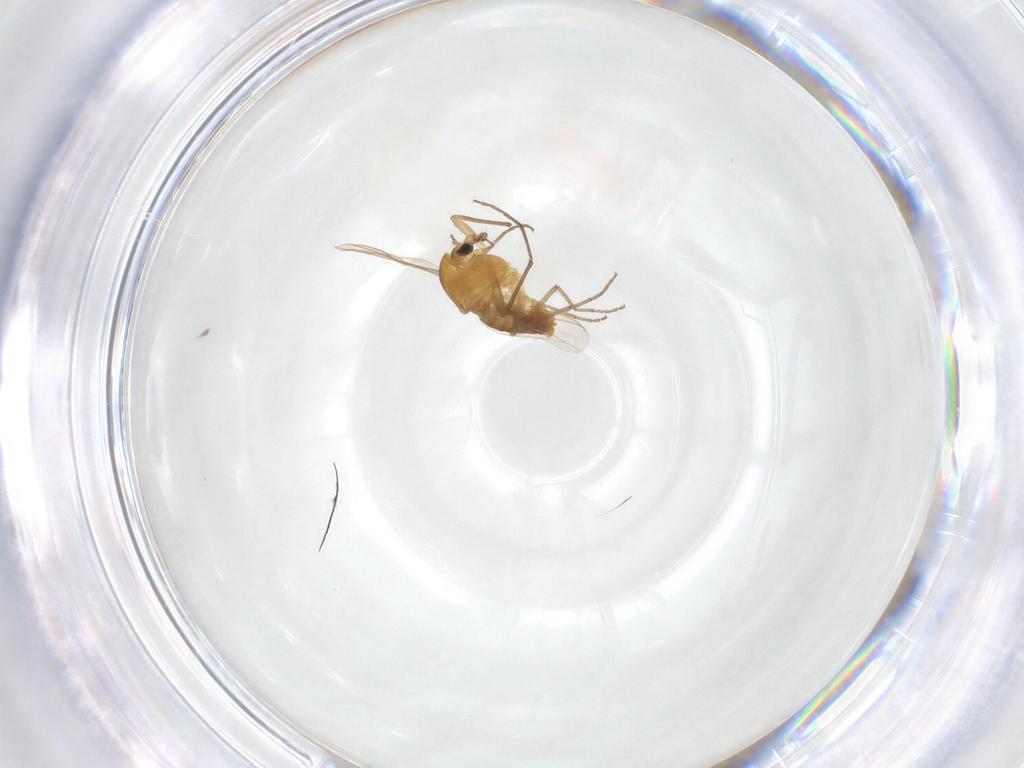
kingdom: Animalia
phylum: Arthropoda
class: Insecta
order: Diptera
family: Chironomidae
